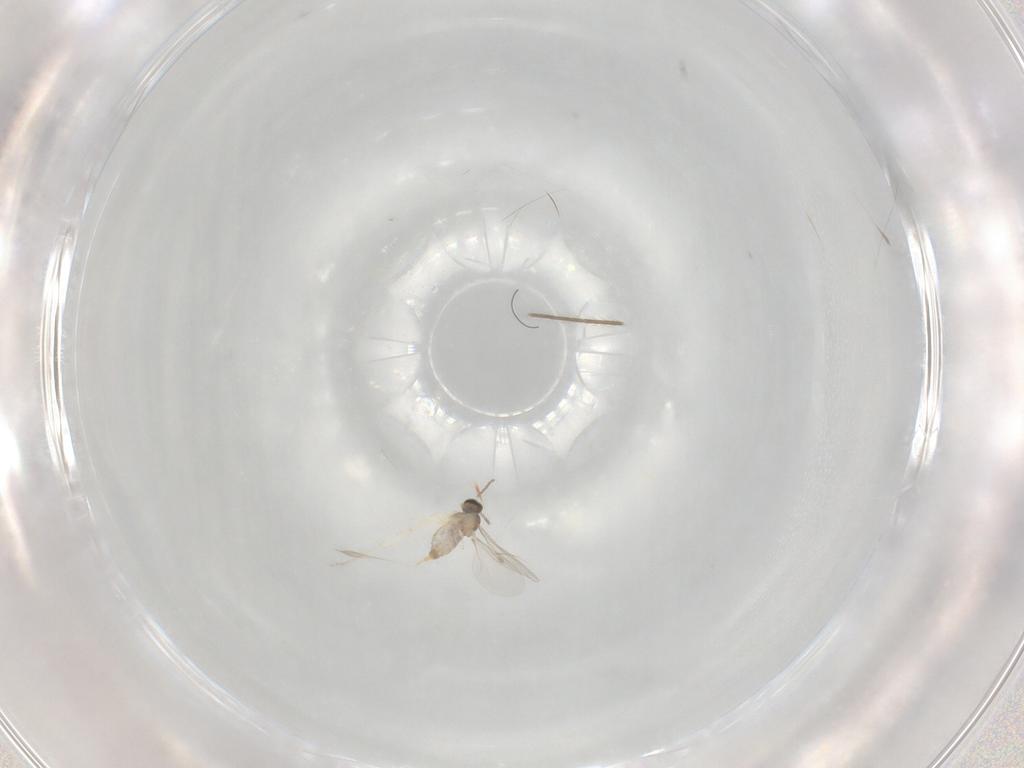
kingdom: Animalia
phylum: Arthropoda
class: Insecta
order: Diptera
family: Cecidomyiidae
